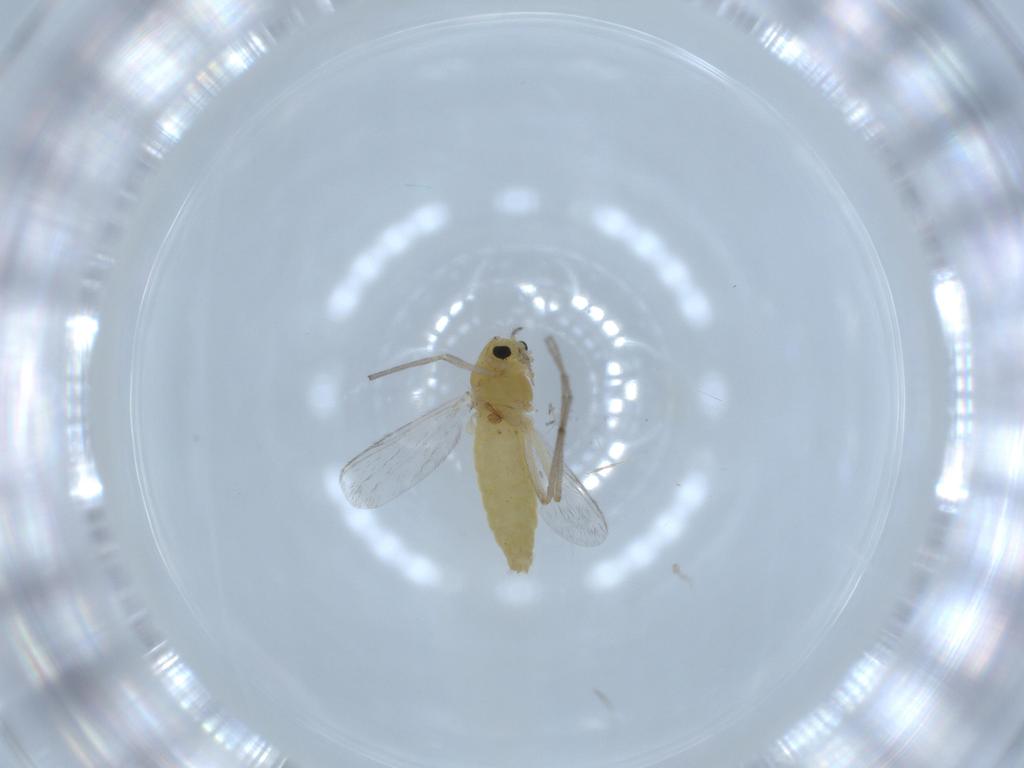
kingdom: Animalia
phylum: Arthropoda
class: Insecta
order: Diptera
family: Chironomidae
